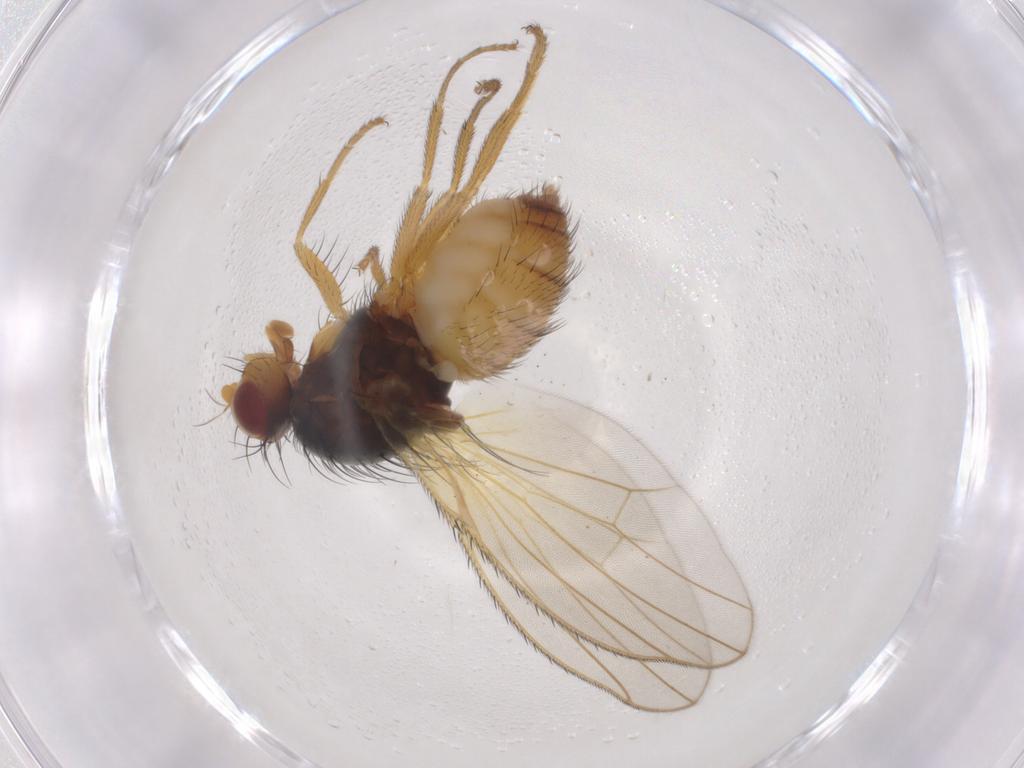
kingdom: Animalia
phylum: Arthropoda
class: Insecta
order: Diptera
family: Heleomyzidae
